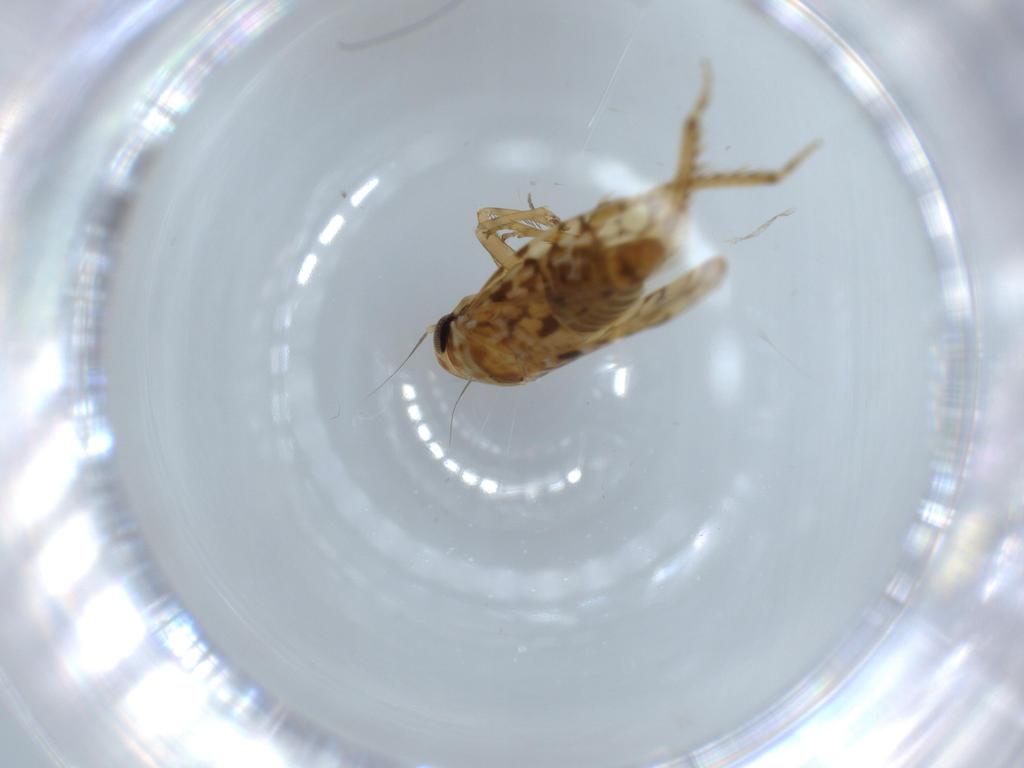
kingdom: Animalia
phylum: Arthropoda
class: Insecta
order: Hemiptera
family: Cicadellidae
